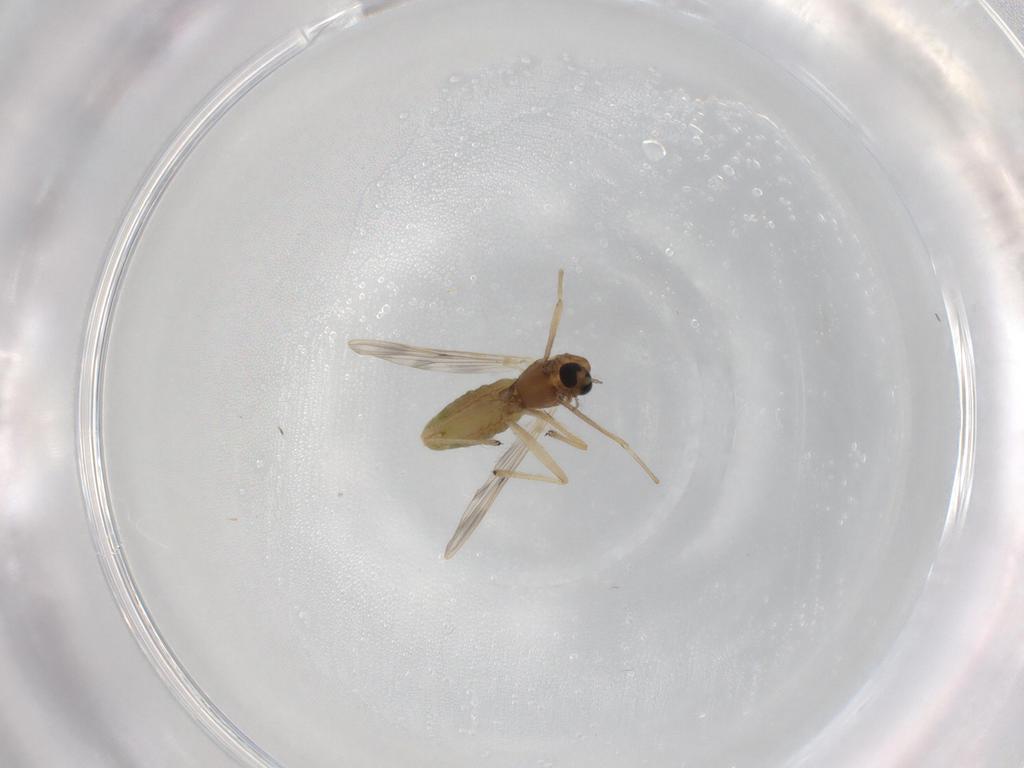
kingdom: Animalia
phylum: Arthropoda
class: Insecta
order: Diptera
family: Chironomidae
